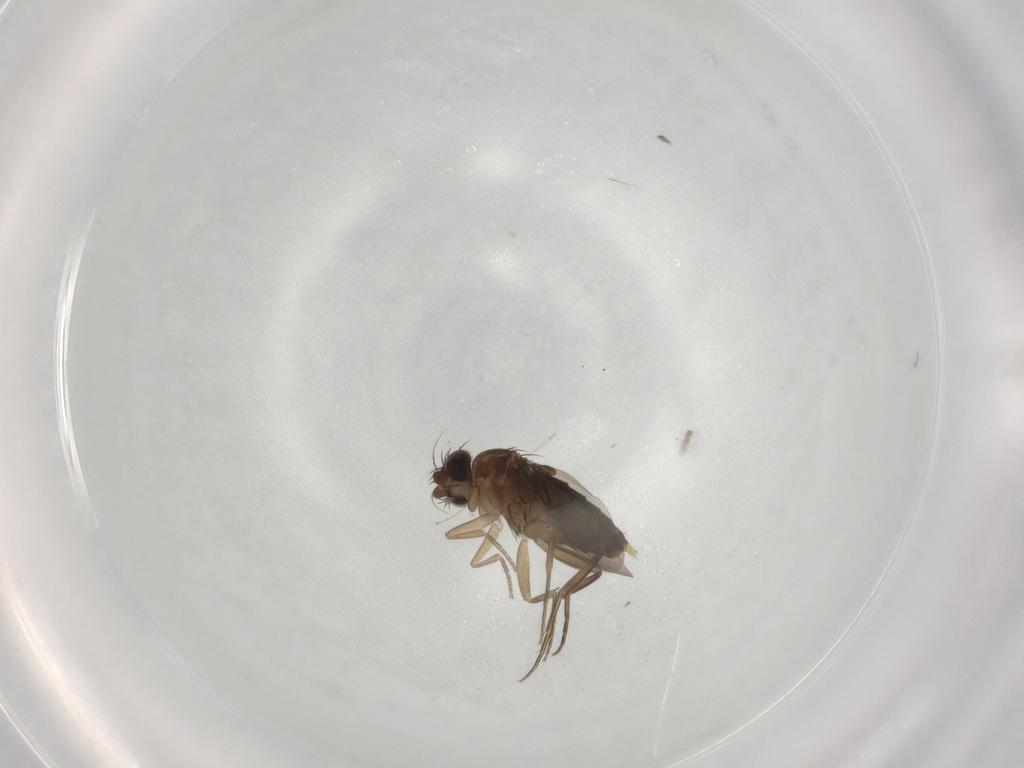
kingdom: Animalia
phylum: Arthropoda
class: Insecta
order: Diptera
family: Phoridae
